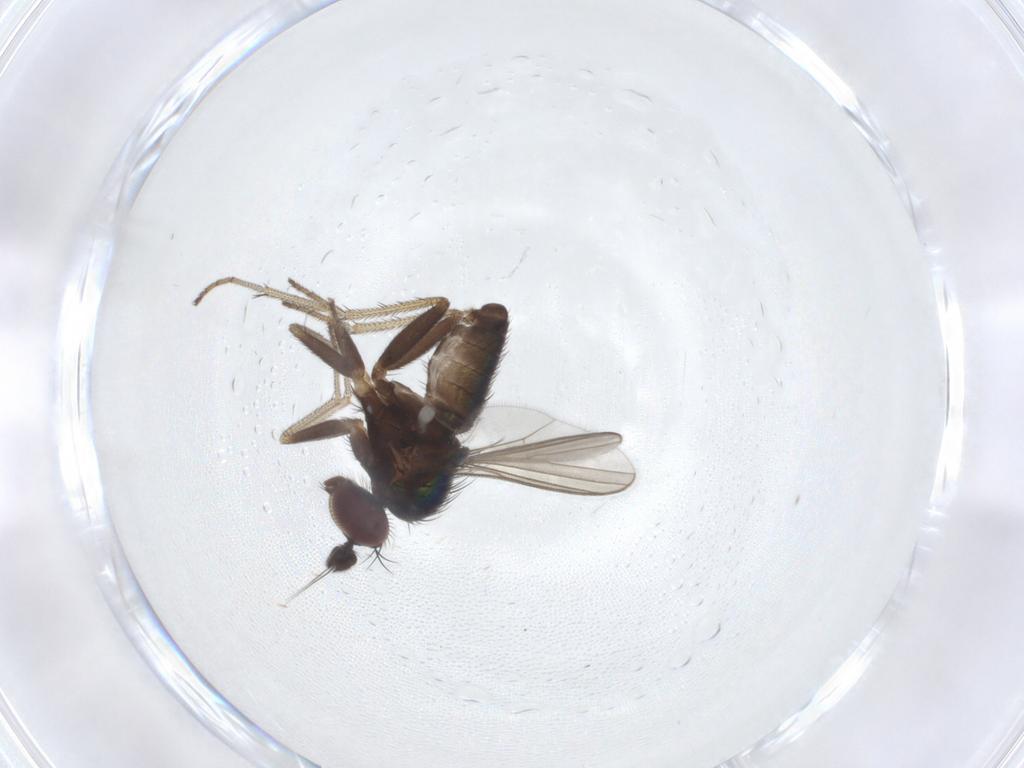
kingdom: Animalia
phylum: Arthropoda
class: Insecta
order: Diptera
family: Dolichopodidae
